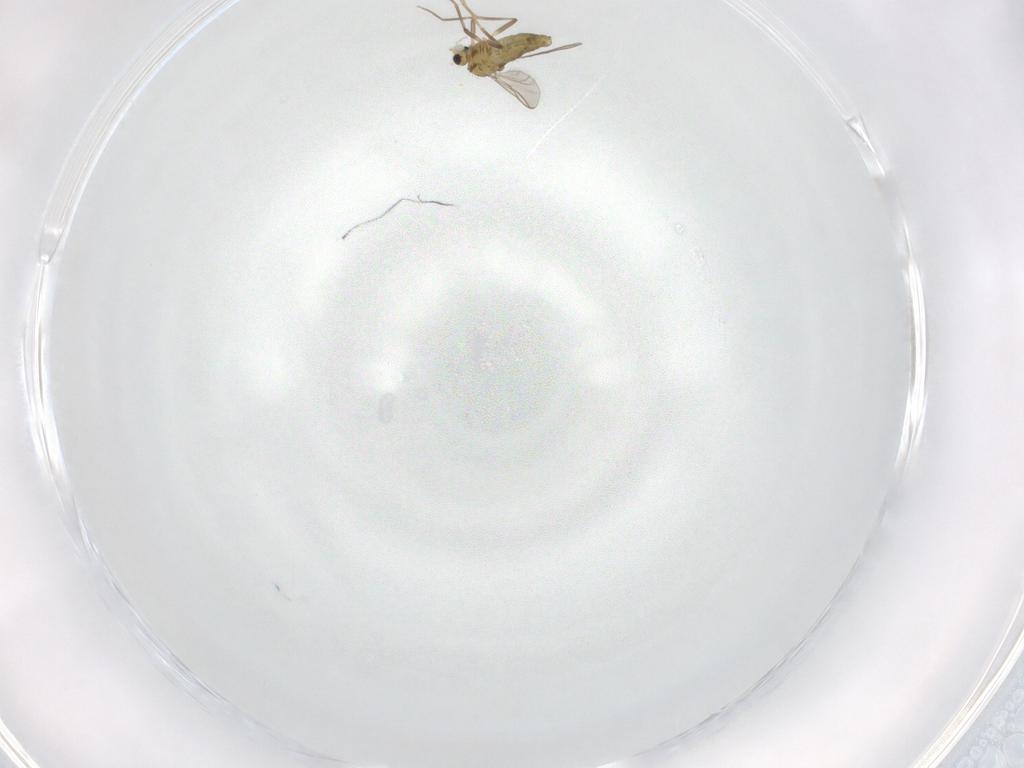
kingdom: Animalia
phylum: Arthropoda
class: Insecta
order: Diptera
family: Chironomidae
